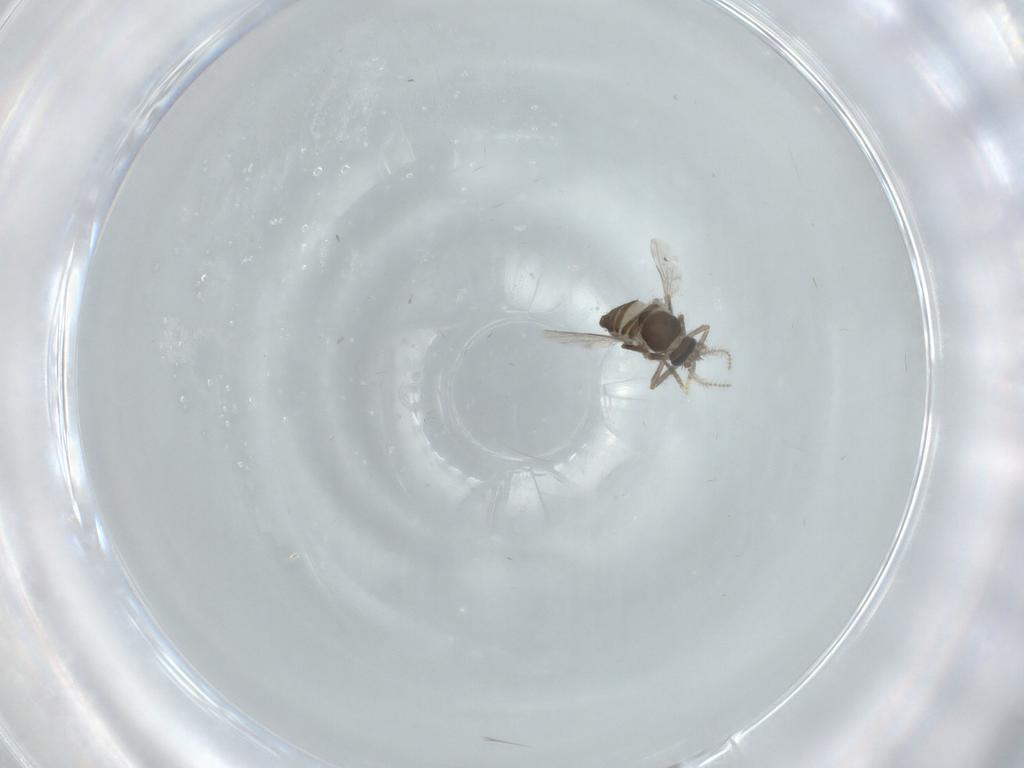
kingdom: Animalia
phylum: Arthropoda
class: Insecta
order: Diptera
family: Ceratopogonidae
